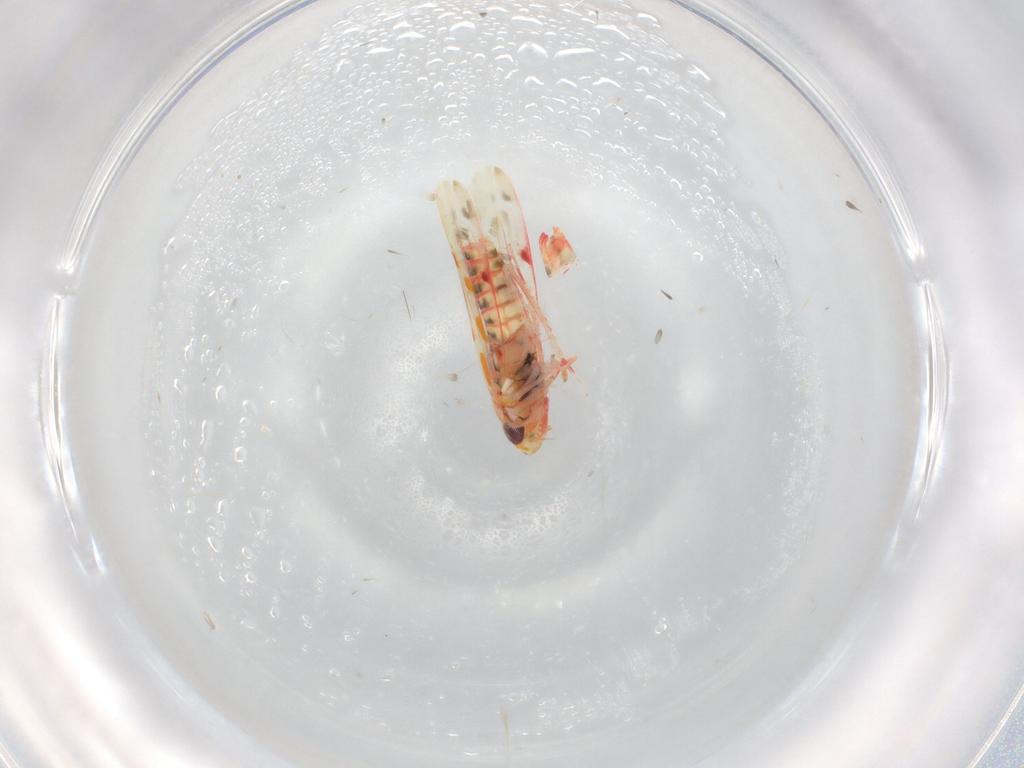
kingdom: Animalia
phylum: Arthropoda
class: Insecta
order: Hemiptera
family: Cicadellidae
